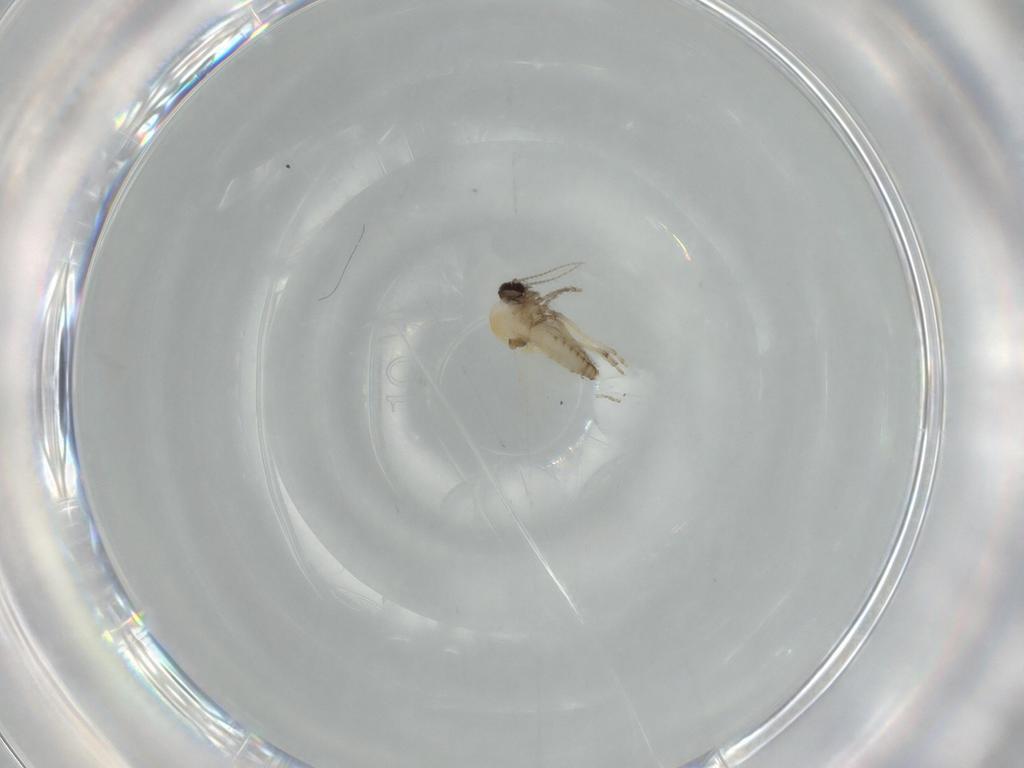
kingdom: Animalia
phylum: Arthropoda
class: Insecta
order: Diptera
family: Ceratopogonidae
